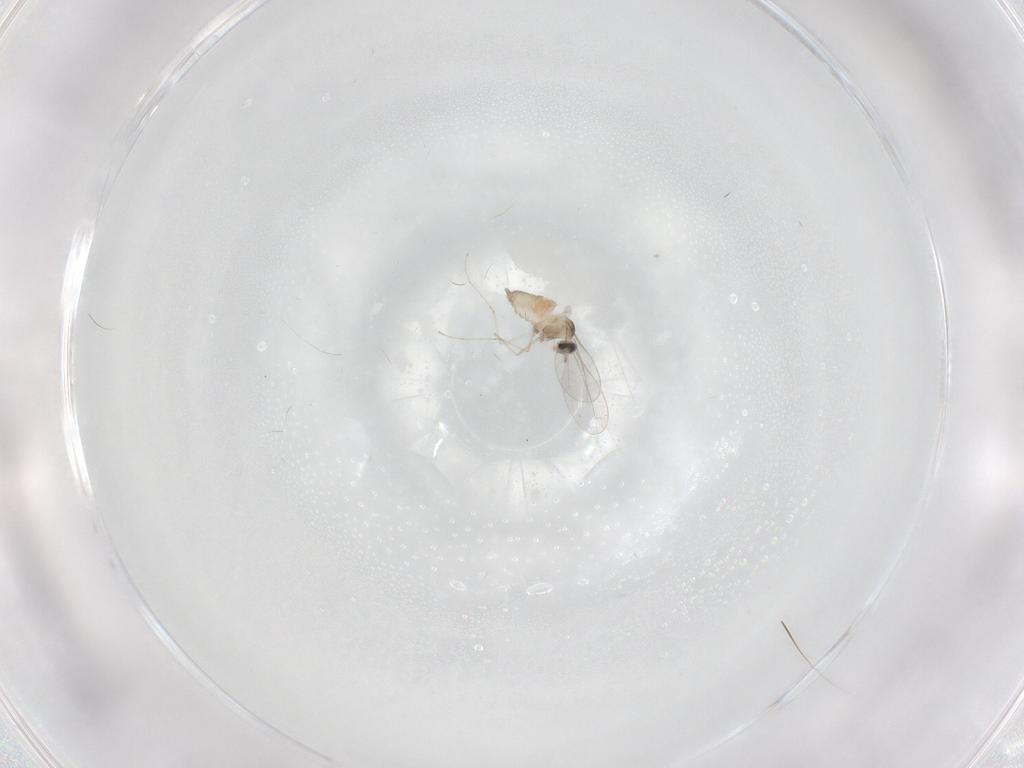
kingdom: Animalia
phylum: Arthropoda
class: Insecta
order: Diptera
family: Cecidomyiidae
